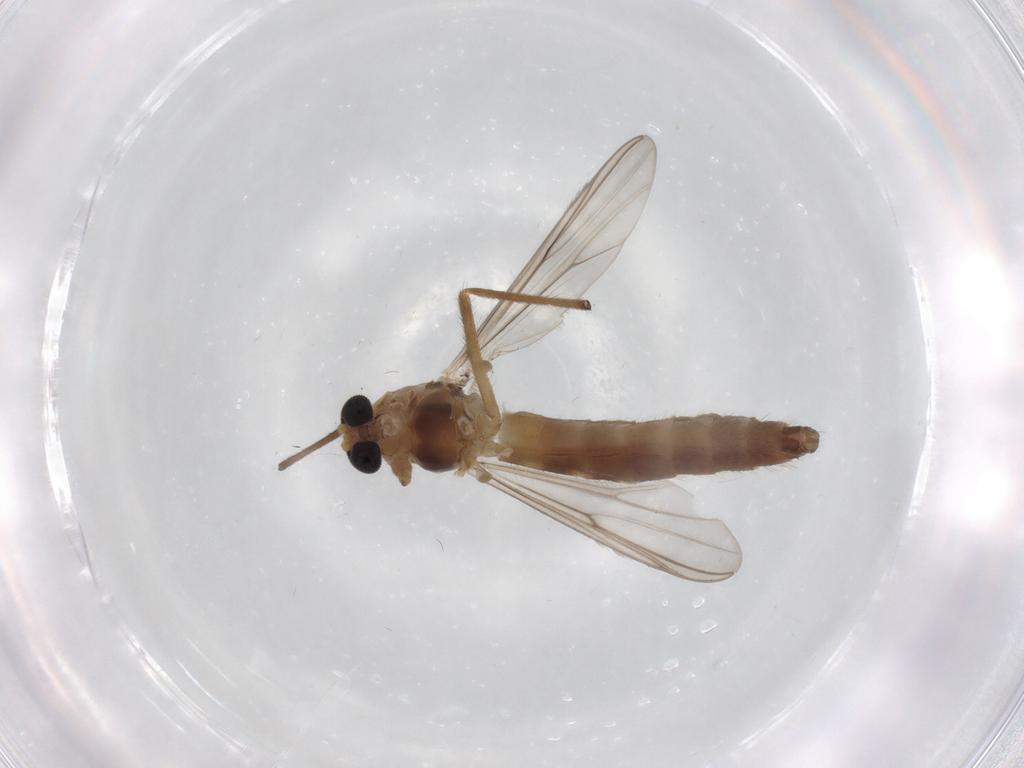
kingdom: Animalia
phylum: Arthropoda
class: Insecta
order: Diptera
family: Chironomidae
